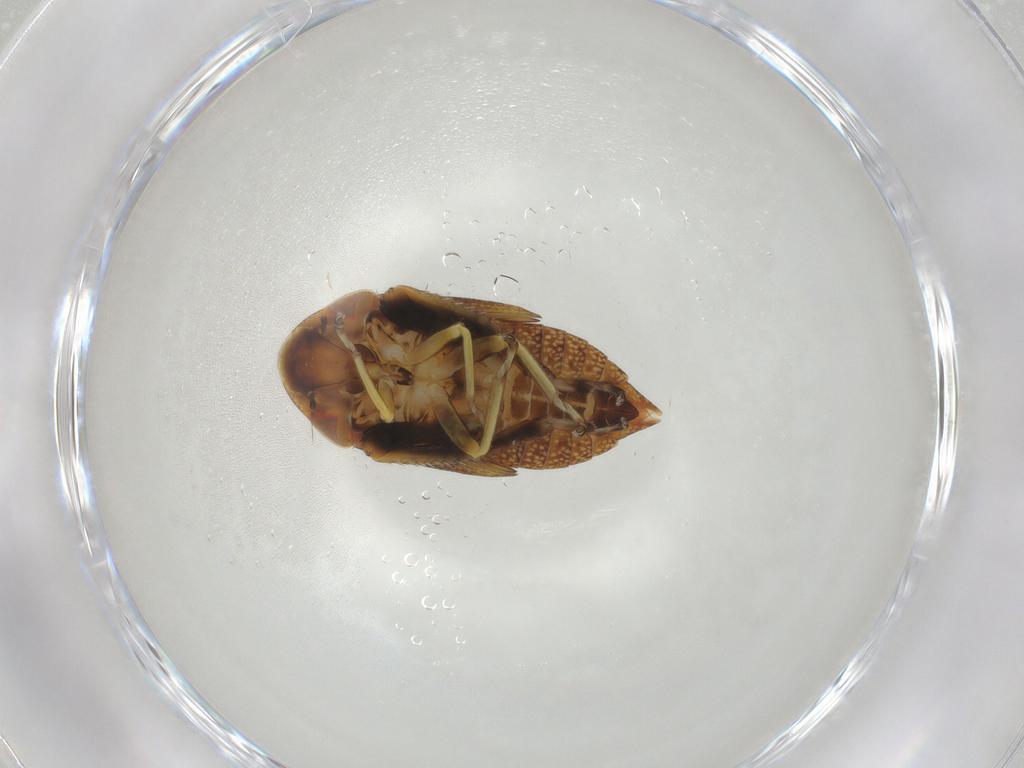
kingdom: Animalia
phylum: Arthropoda
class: Insecta
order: Hemiptera
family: Cicadellidae
